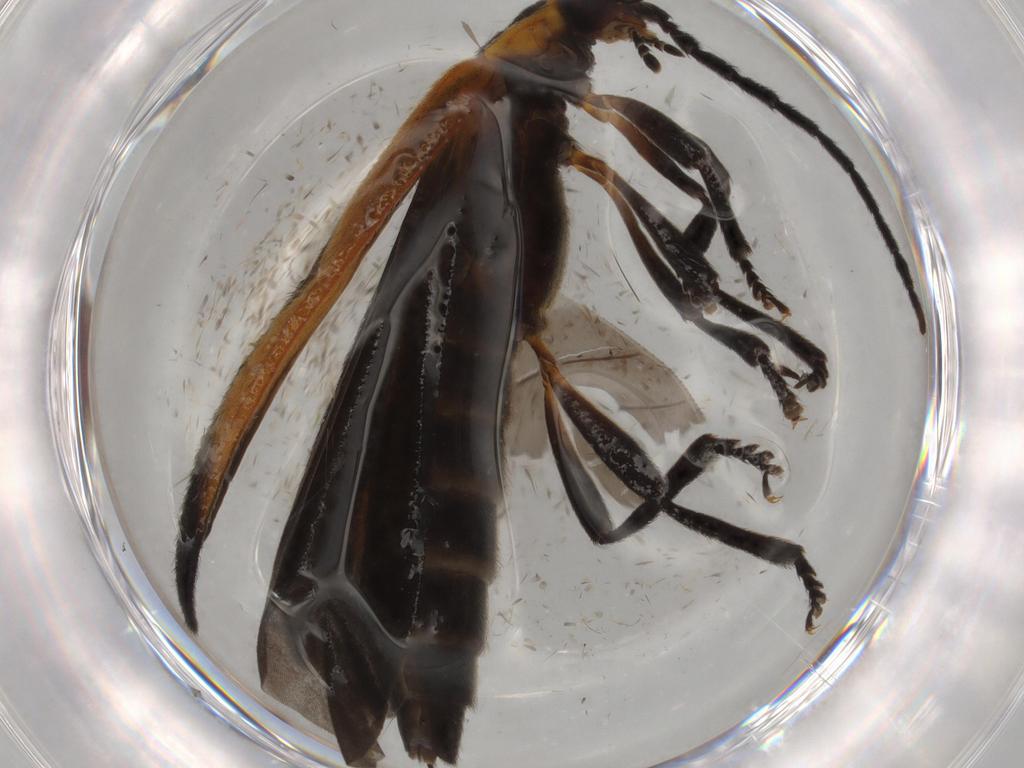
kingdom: Animalia
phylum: Arthropoda
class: Insecta
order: Coleoptera
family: Lycidae
